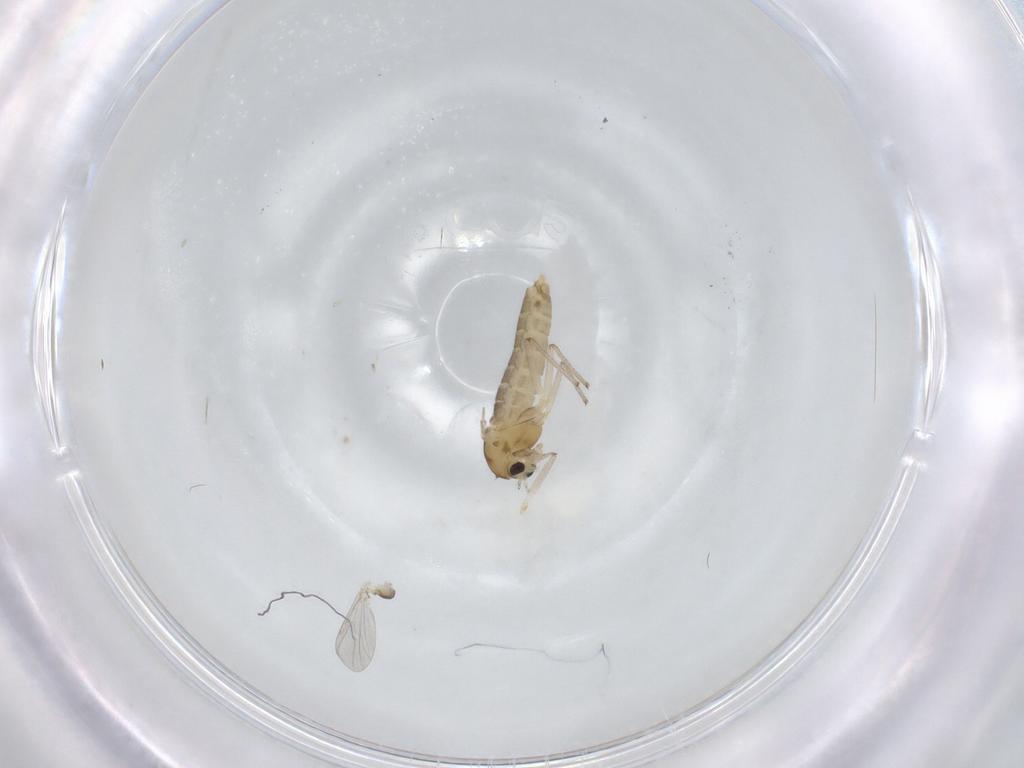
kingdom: Animalia
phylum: Arthropoda
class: Insecta
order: Diptera
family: Chironomidae
